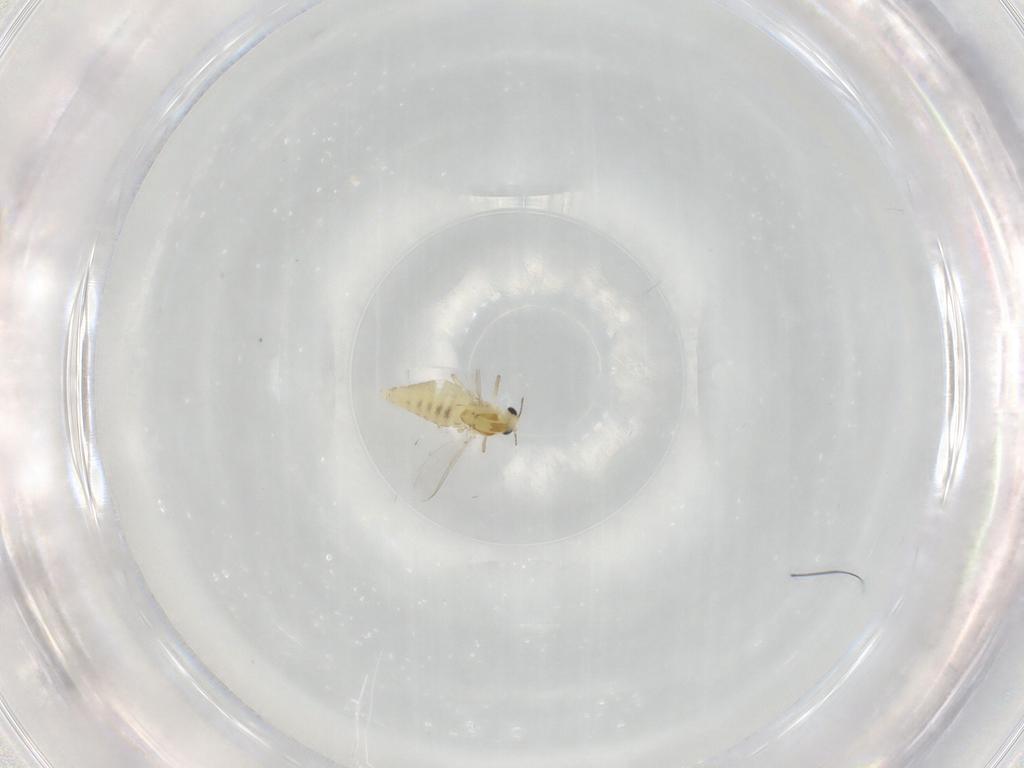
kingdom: Animalia
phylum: Arthropoda
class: Insecta
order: Diptera
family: Chironomidae
